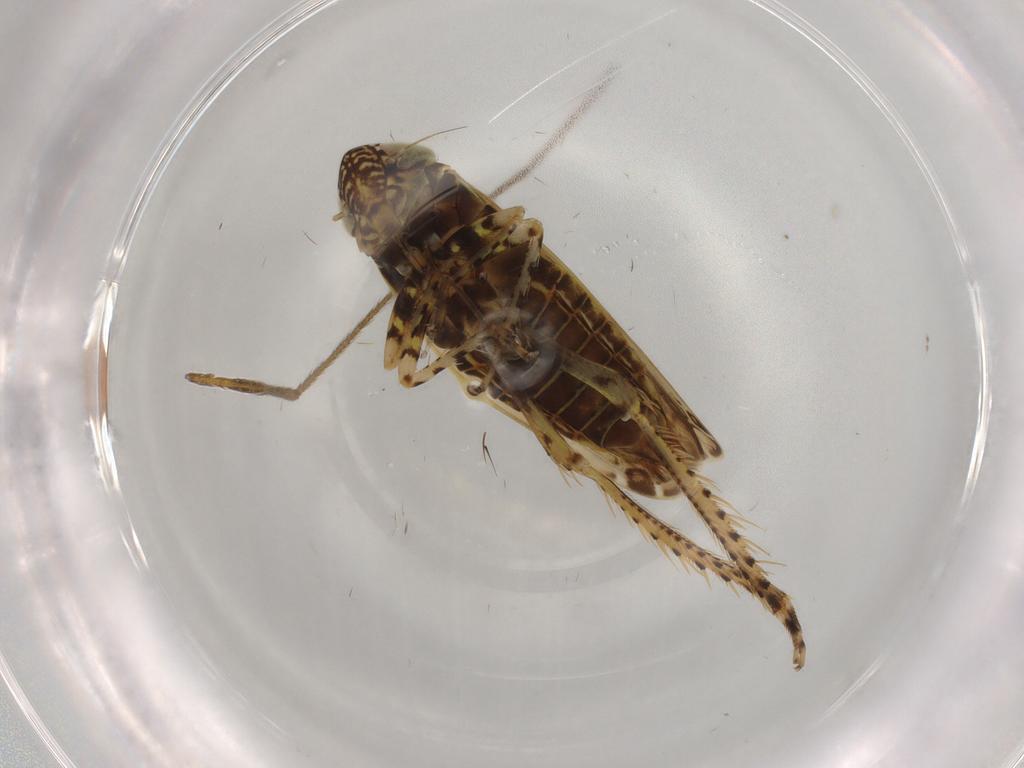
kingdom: Animalia
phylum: Arthropoda
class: Insecta
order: Hemiptera
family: Cicadellidae
